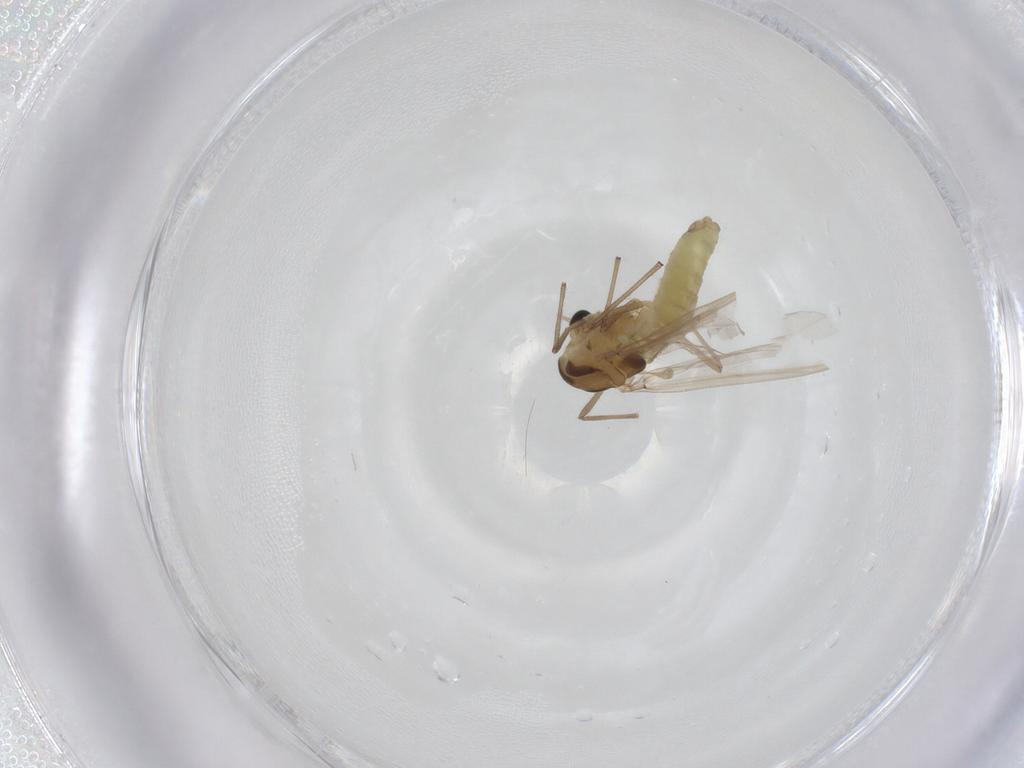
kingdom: Animalia
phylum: Arthropoda
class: Insecta
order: Diptera
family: Chironomidae
